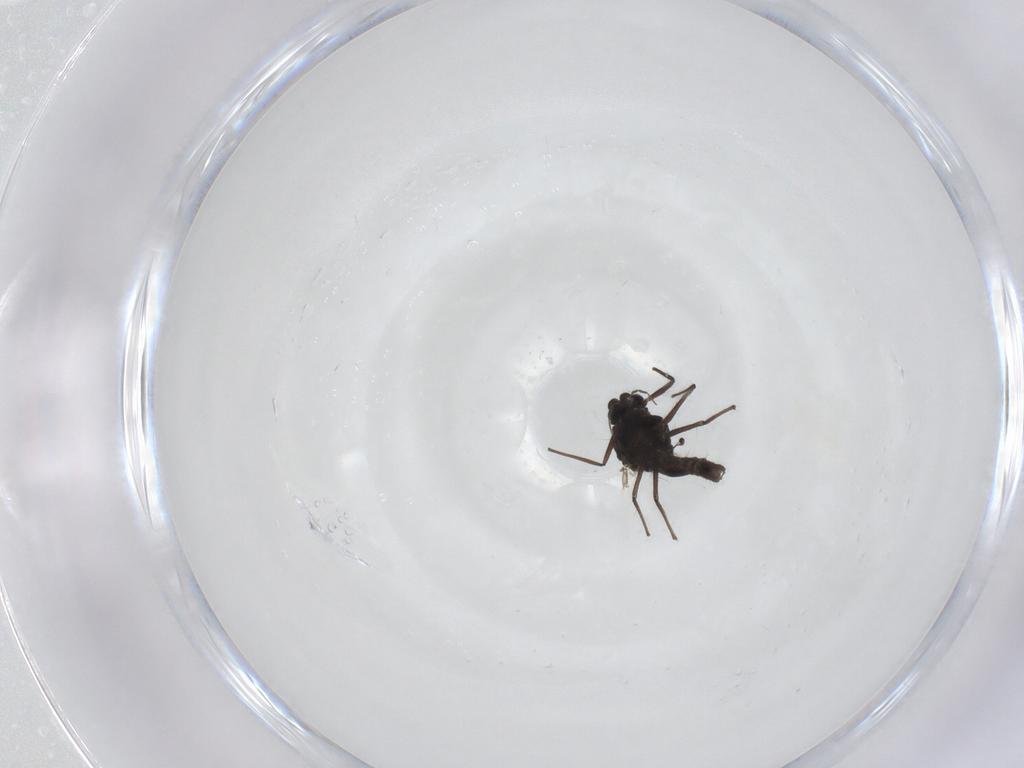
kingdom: Animalia
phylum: Arthropoda
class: Insecta
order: Diptera
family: Chironomidae
